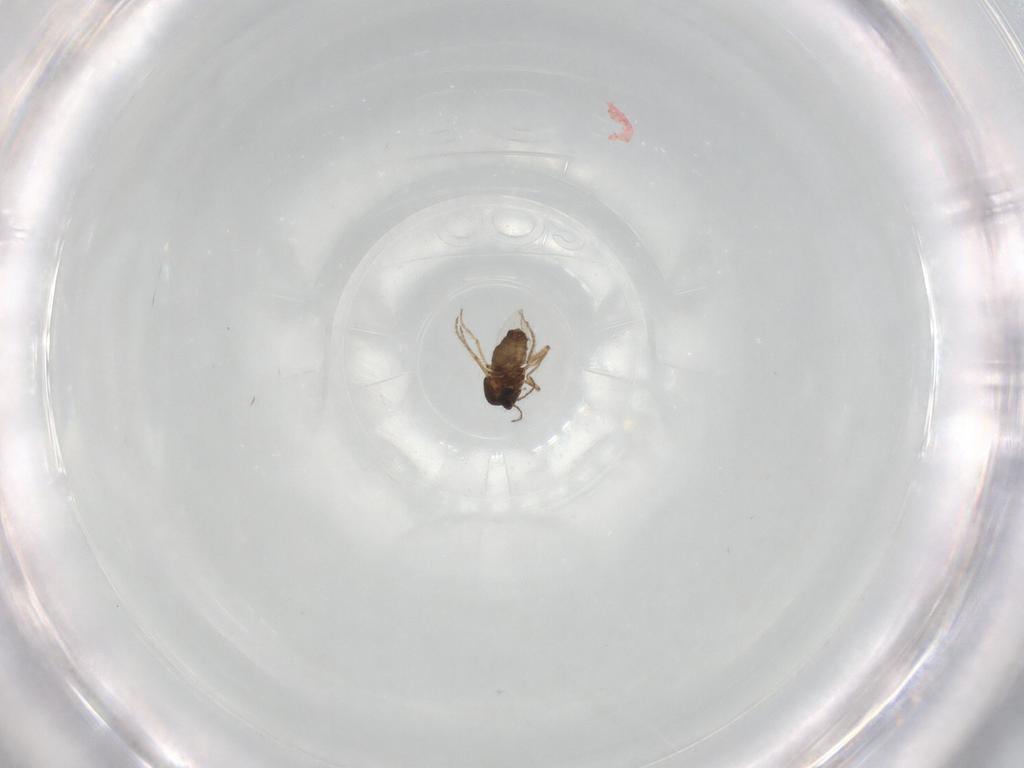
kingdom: Animalia
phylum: Arthropoda
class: Insecta
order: Diptera
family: Ceratopogonidae
